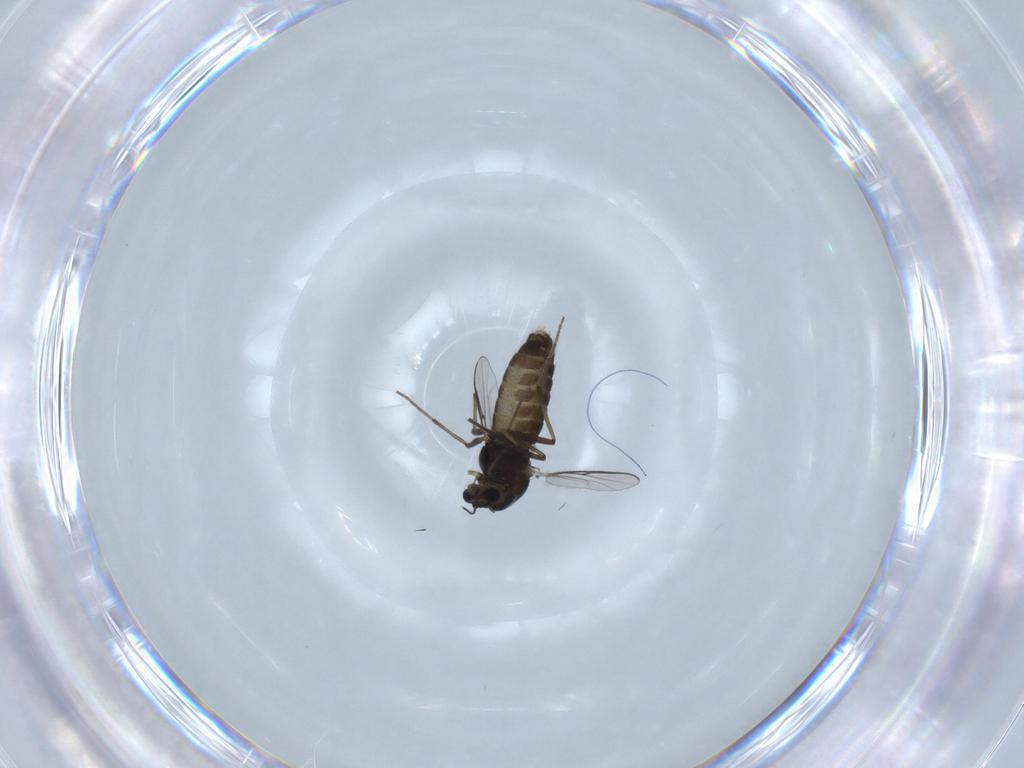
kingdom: Animalia
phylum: Arthropoda
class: Insecta
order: Diptera
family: Chironomidae
